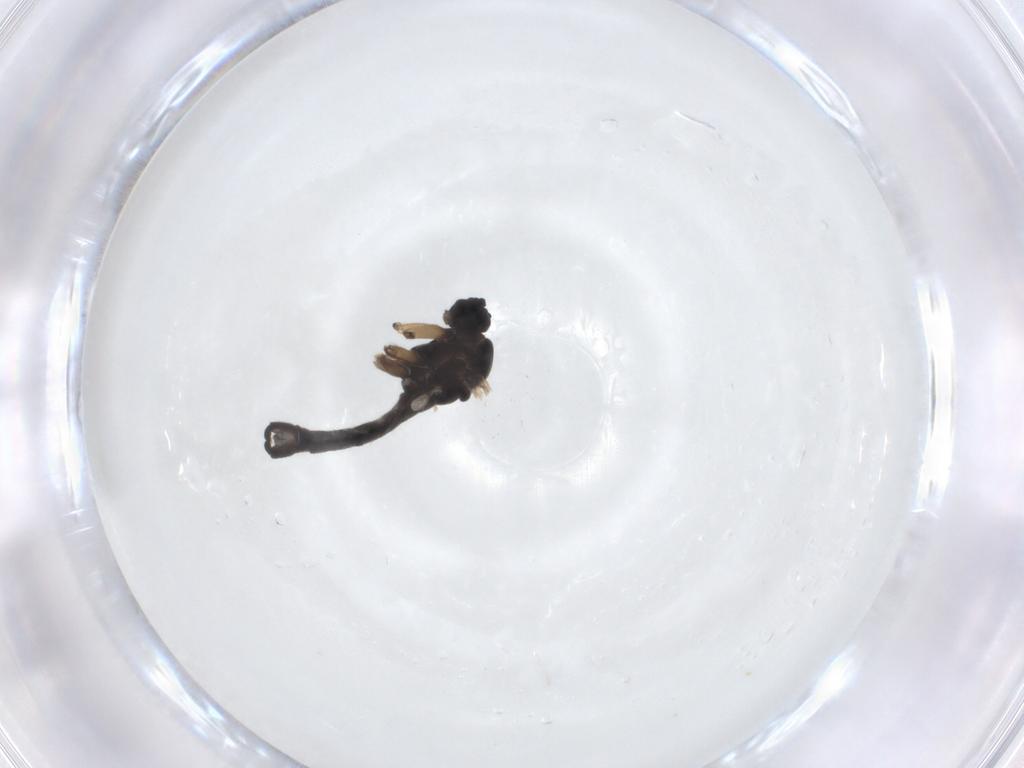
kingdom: Animalia
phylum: Arthropoda
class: Insecta
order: Diptera
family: Sciaridae
